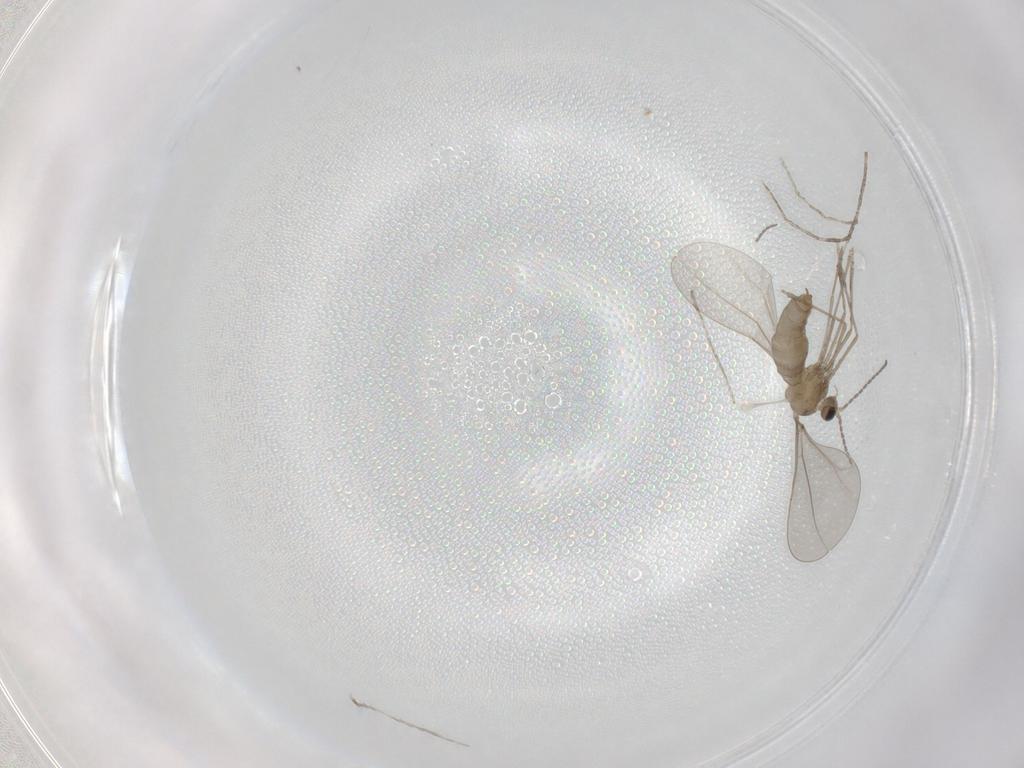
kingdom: Animalia
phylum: Arthropoda
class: Insecta
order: Diptera
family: Cecidomyiidae
